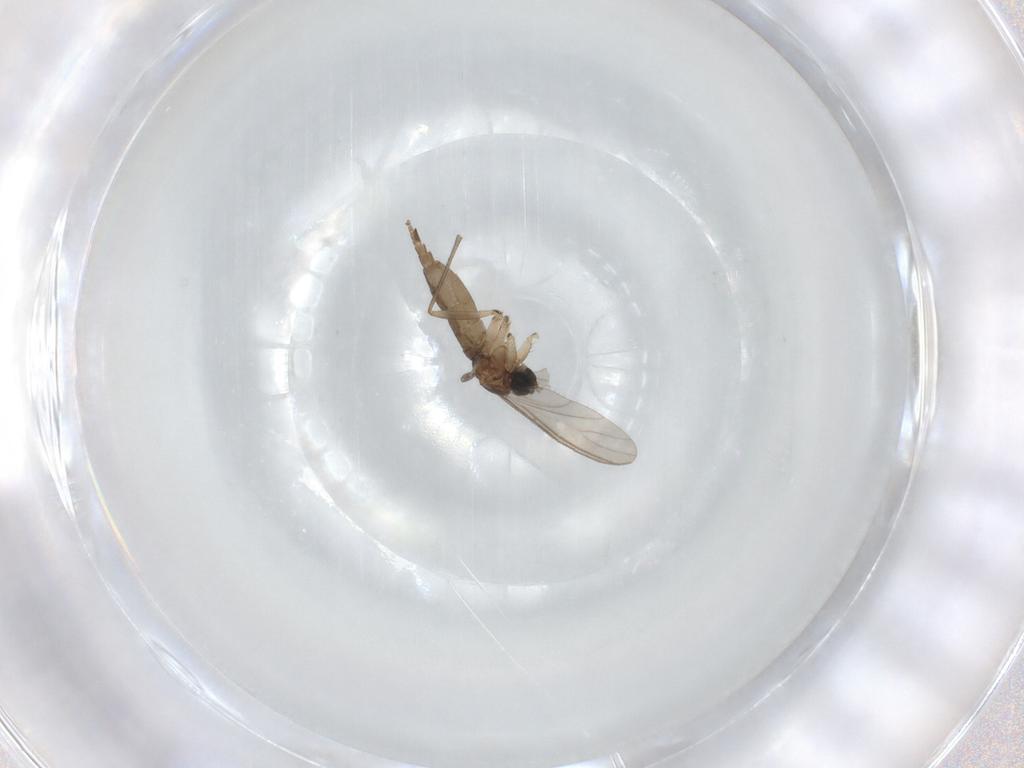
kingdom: Animalia
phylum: Arthropoda
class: Insecta
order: Diptera
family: Sciaridae
